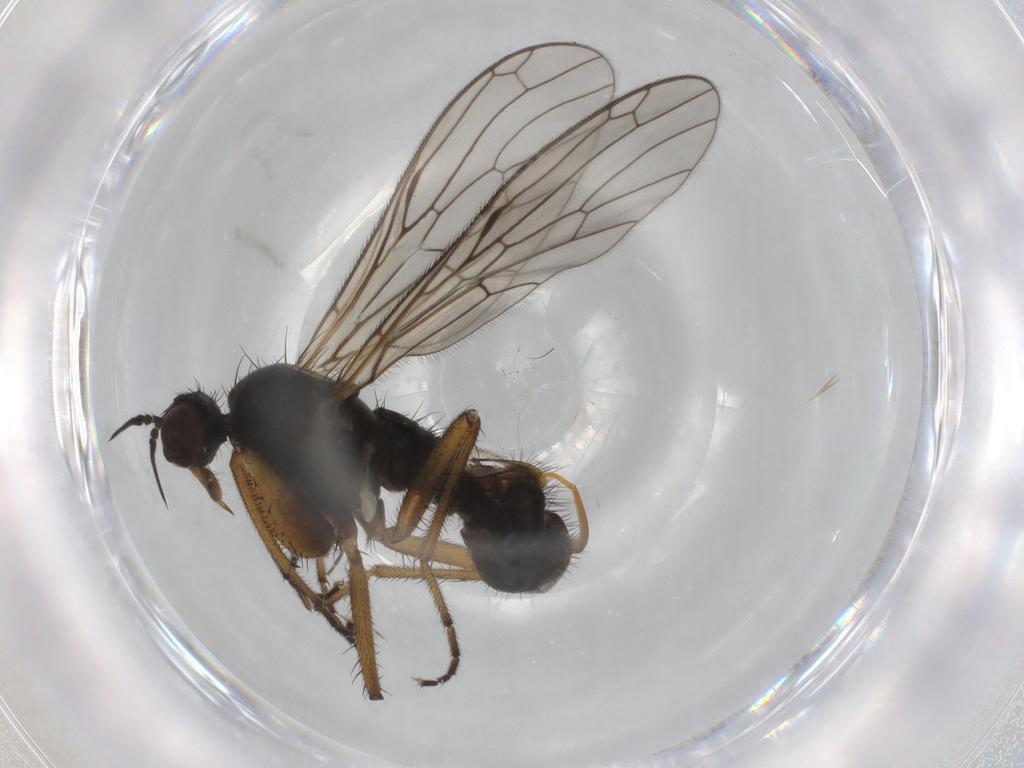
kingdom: Animalia
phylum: Arthropoda
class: Insecta
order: Diptera
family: Empididae
